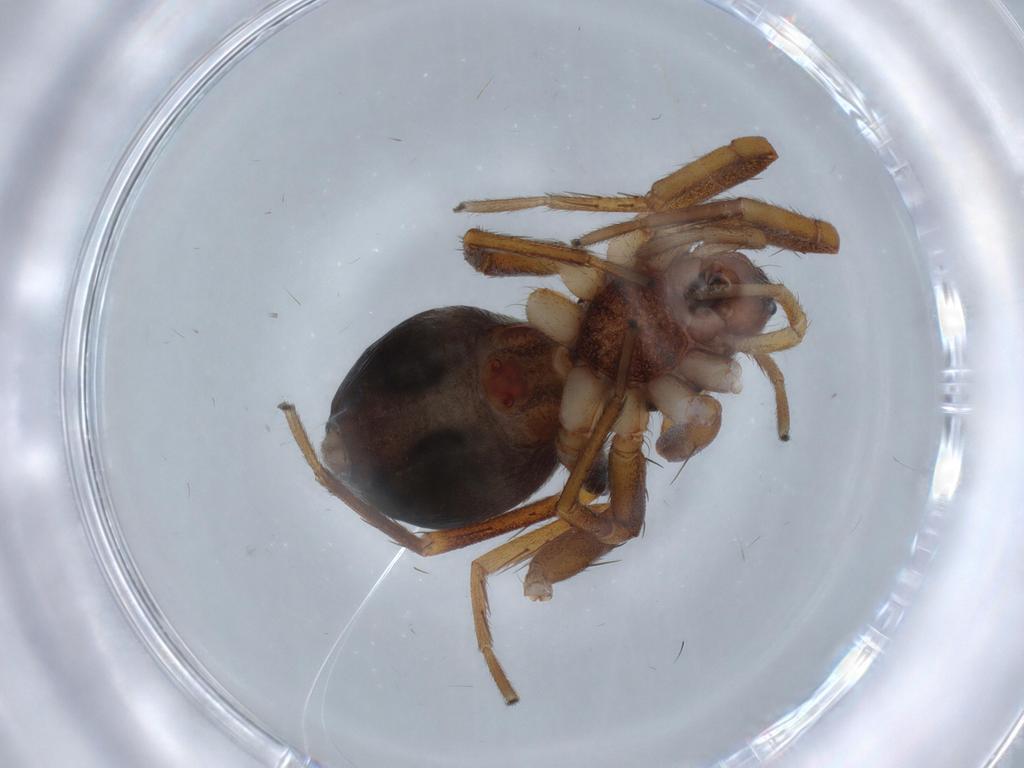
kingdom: Animalia
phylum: Arthropoda
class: Arachnida
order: Araneae
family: Corinnidae
